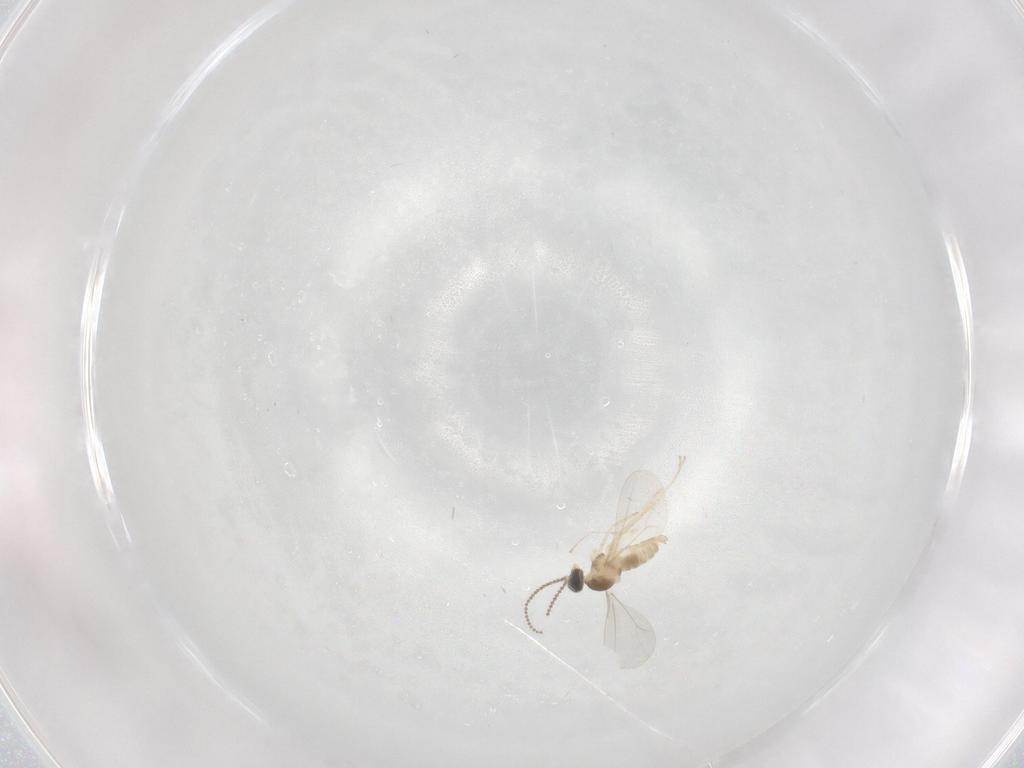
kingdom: Animalia
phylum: Arthropoda
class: Insecta
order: Diptera
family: Cecidomyiidae
